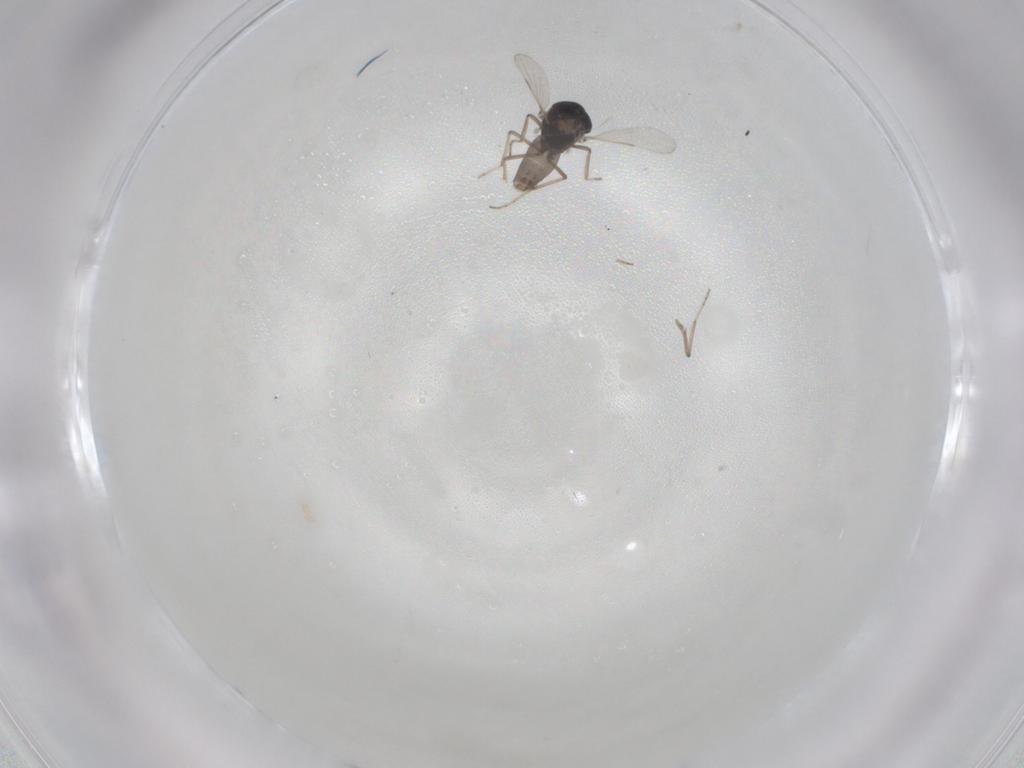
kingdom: Animalia
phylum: Arthropoda
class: Insecta
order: Diptera
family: Ceratopogonidae
